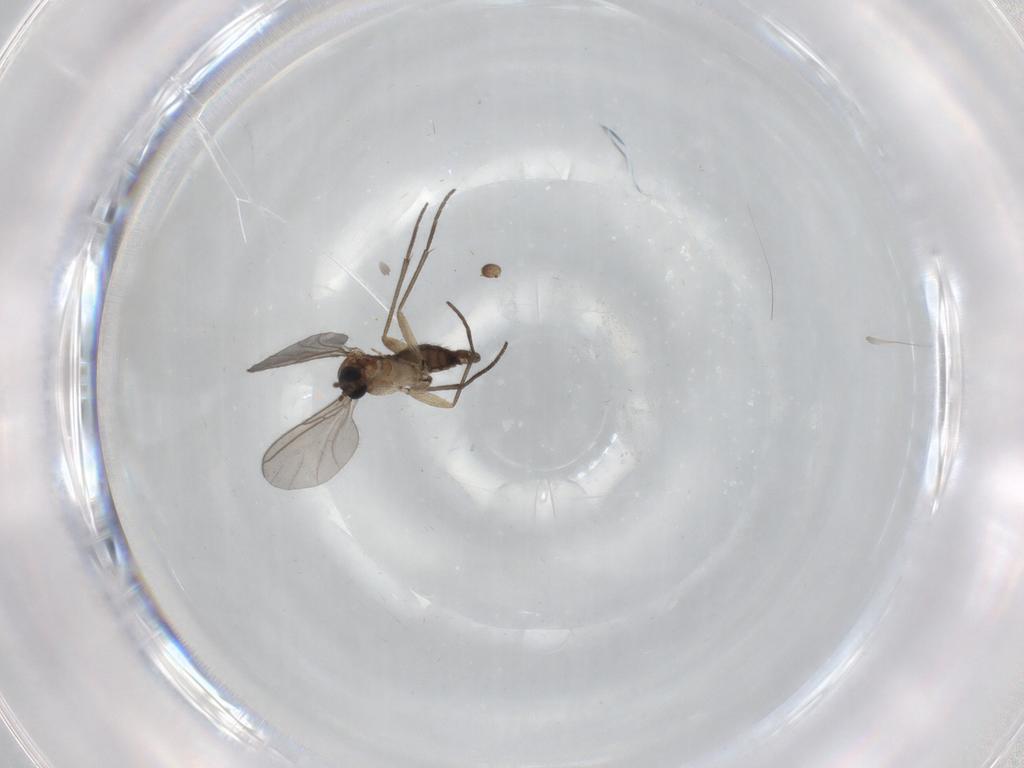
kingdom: Animalia
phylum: Arthropoda
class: Insecta
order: Diptera
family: Sciaridae
